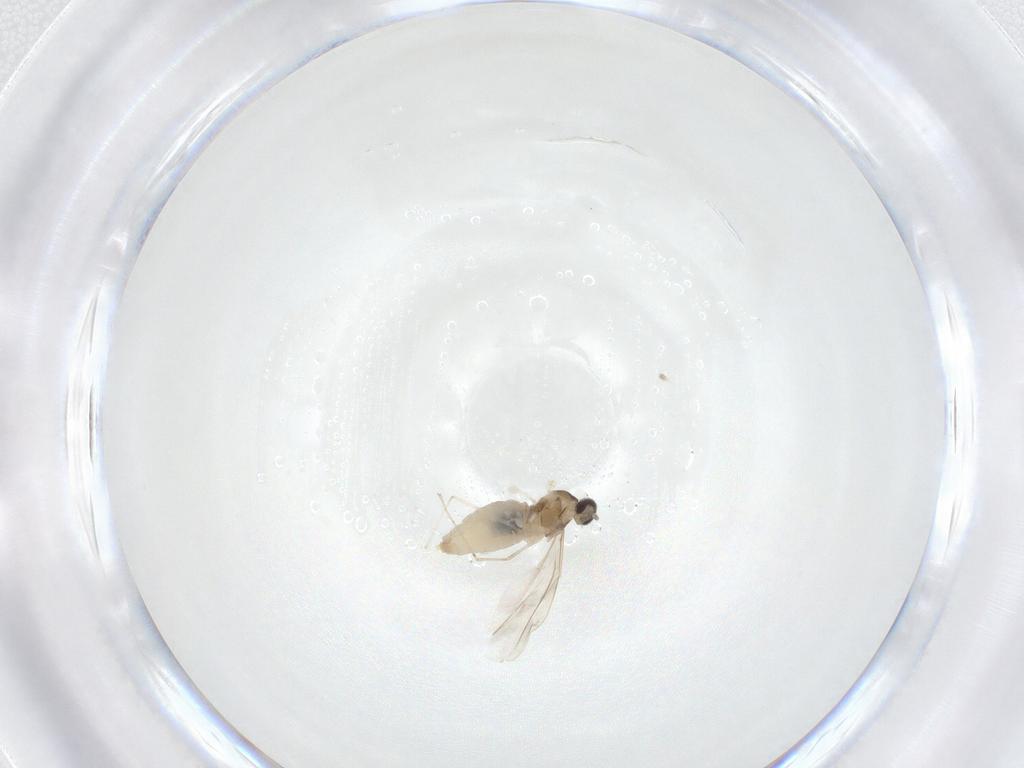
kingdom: Animalia
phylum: Arthropoda
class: Insecta
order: Diptera
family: Cecidomyiidae
